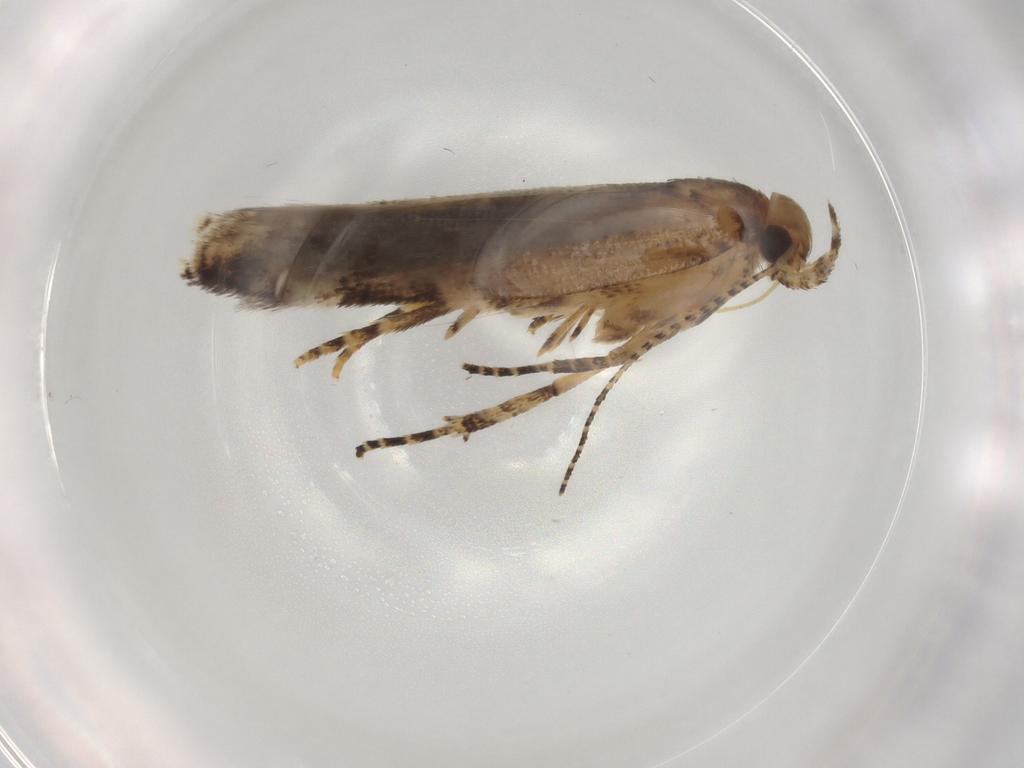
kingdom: Animalia
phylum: Arthropoda
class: Insecta
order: Lepidoptera
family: Gelechiidae
